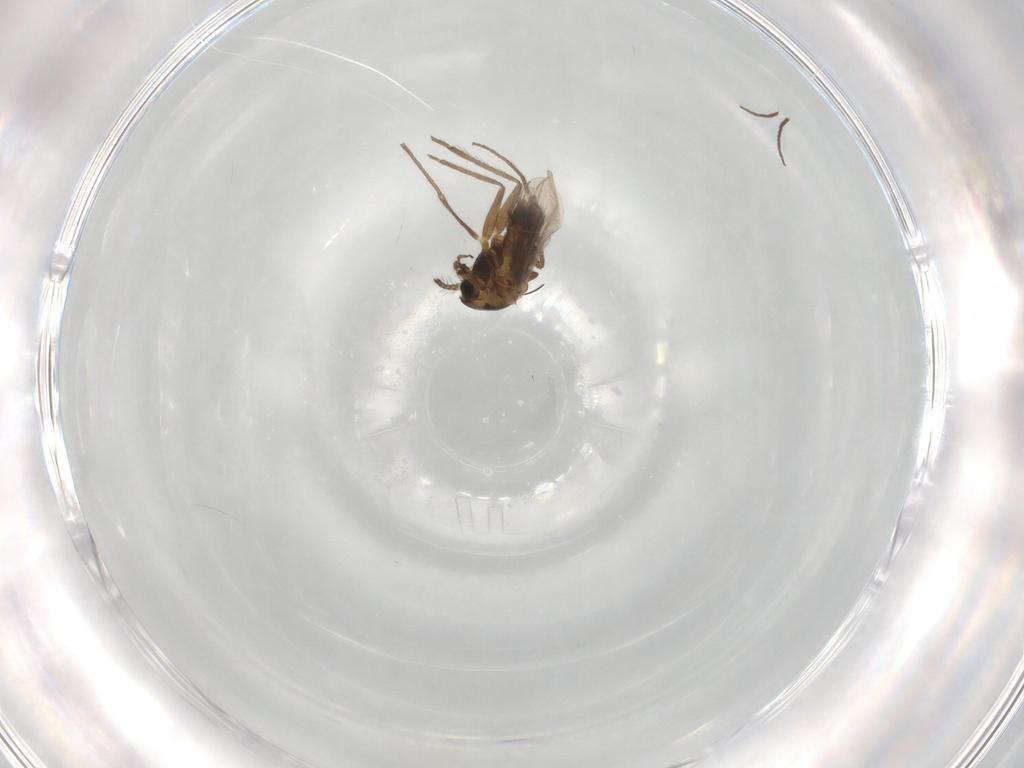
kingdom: Animalia
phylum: Arthropoda
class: Insecta
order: Diptera
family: Chironomidae
